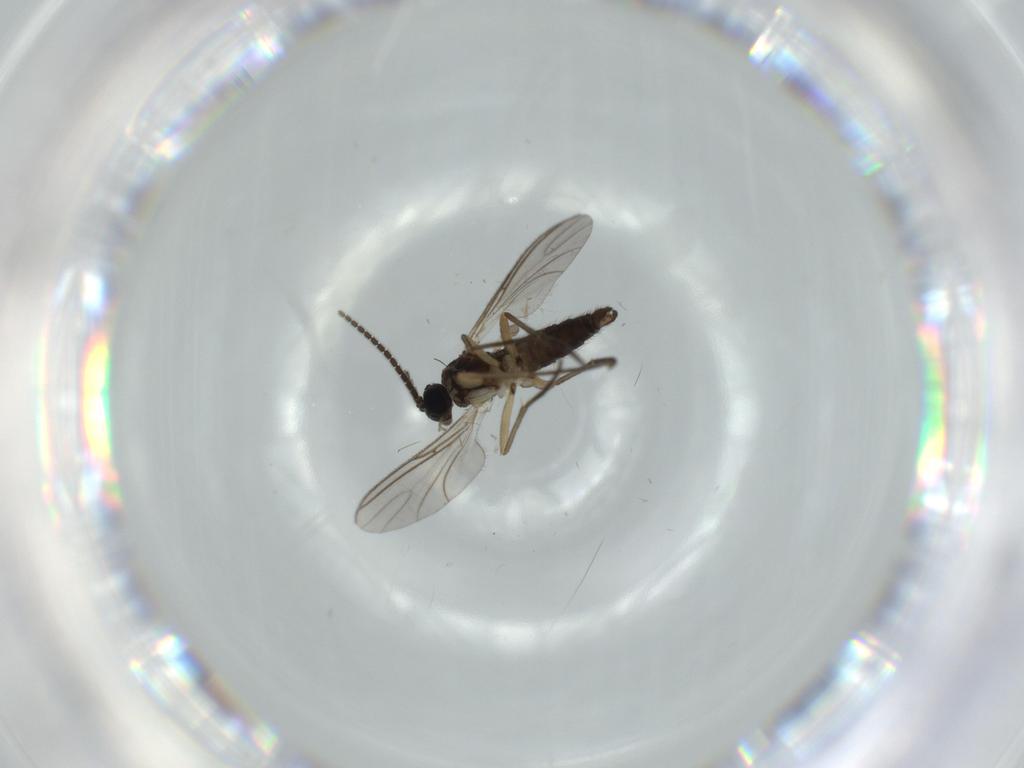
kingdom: Animalia
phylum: Arthropoda
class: Insecta
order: Diptera
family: Sciaridae
